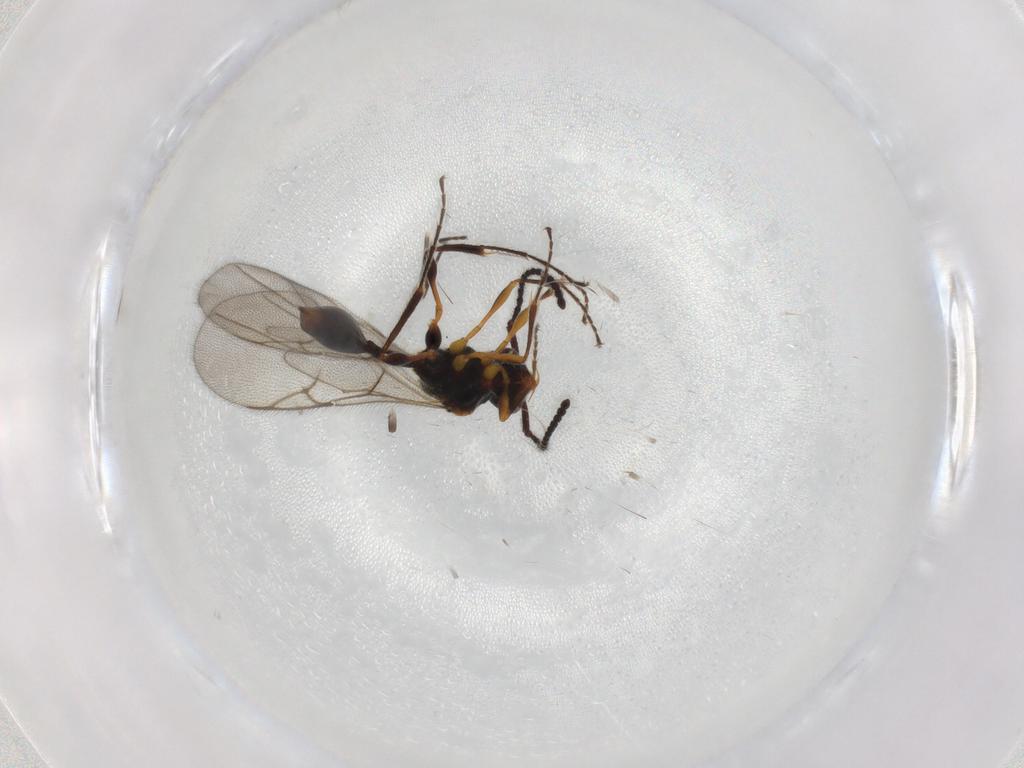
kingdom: Animalia
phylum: Arthropoda
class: Insecta
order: Hymenoptera
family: Diapriidae
